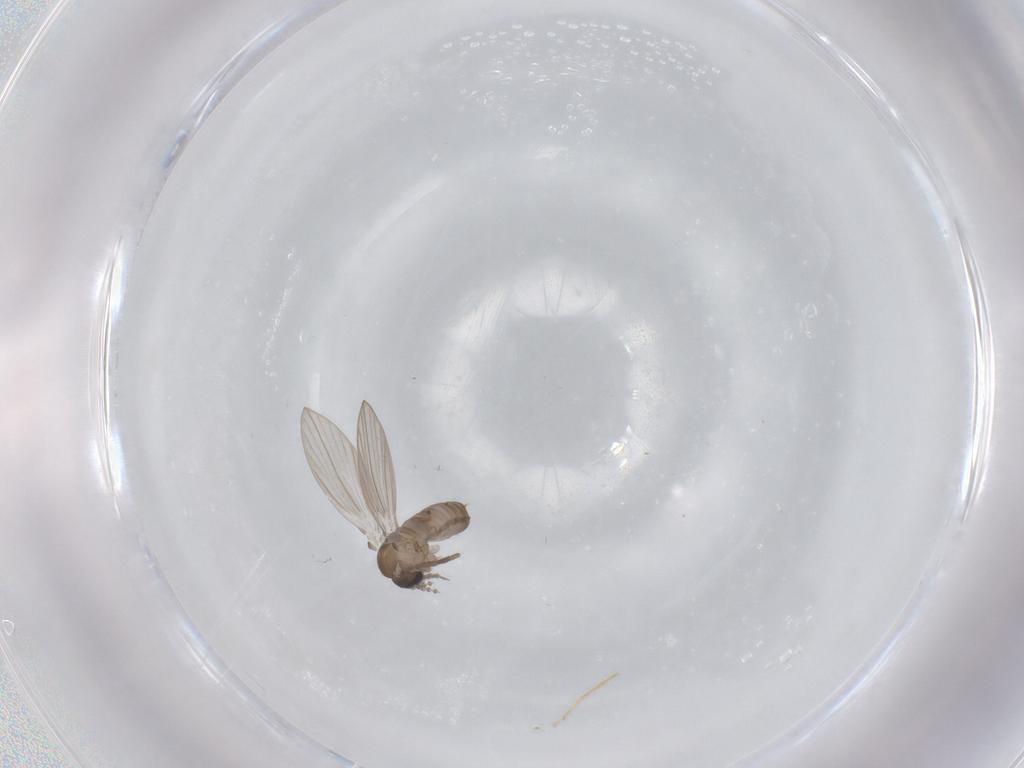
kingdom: Animalia
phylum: Arthropoda
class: Insecta
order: Diptera
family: Psychodidae
